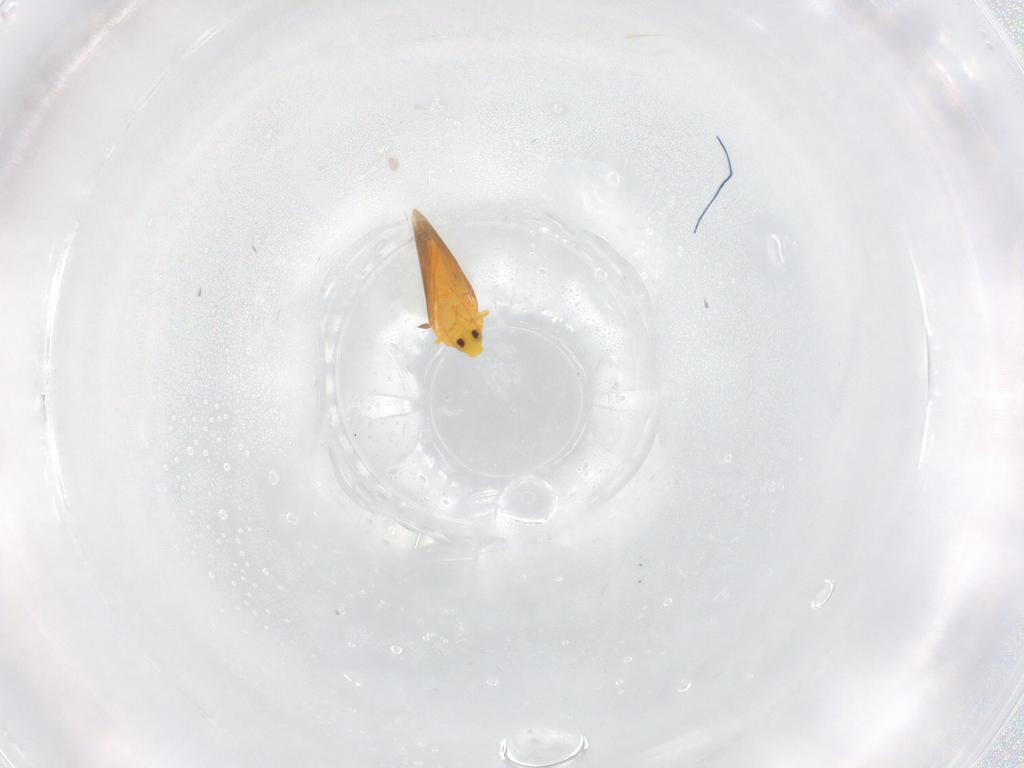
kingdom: Animalia
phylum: Arthropoda
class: Insecta
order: Hemiptera
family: Aleyrodidae
